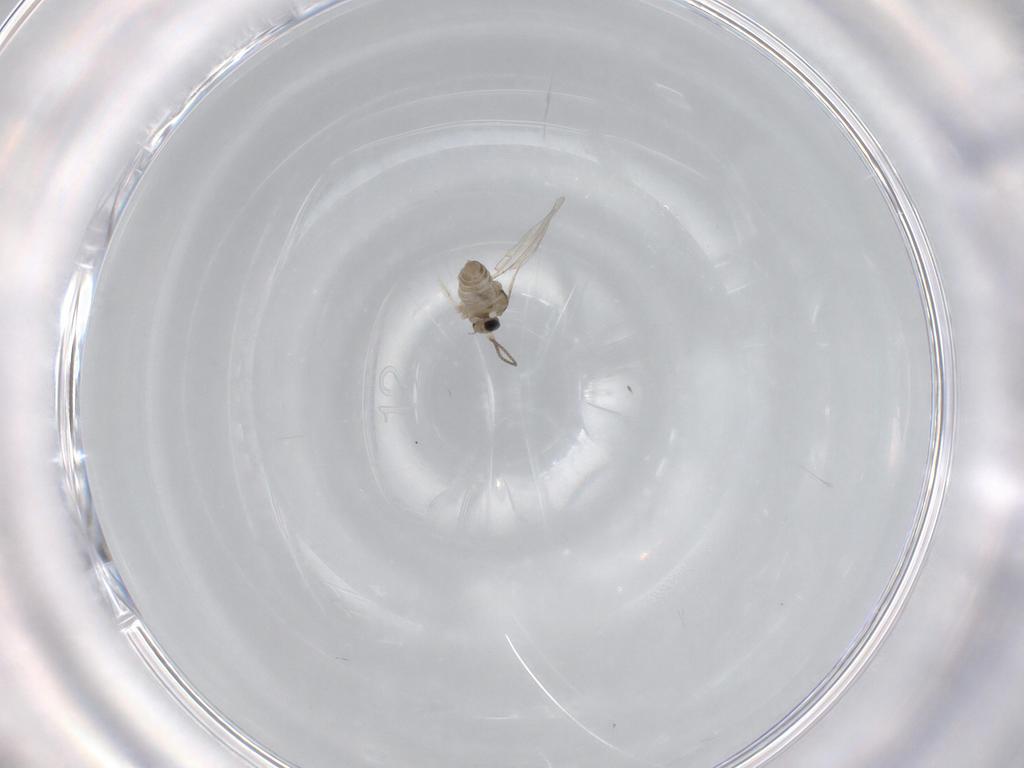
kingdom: Animalia
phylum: Arthropoda
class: Insecta
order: Diptera
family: Cecidomyiidae
